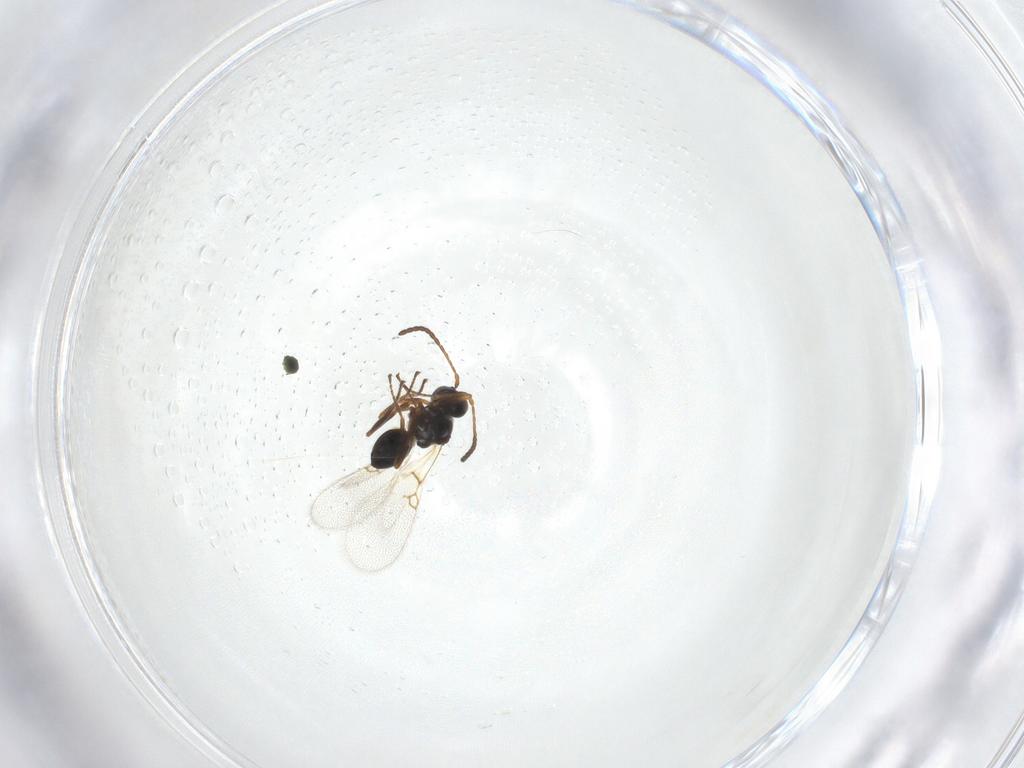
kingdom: Animalia
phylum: Arthropoda
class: Insecta
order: Hymenoptera
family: Figitidae
